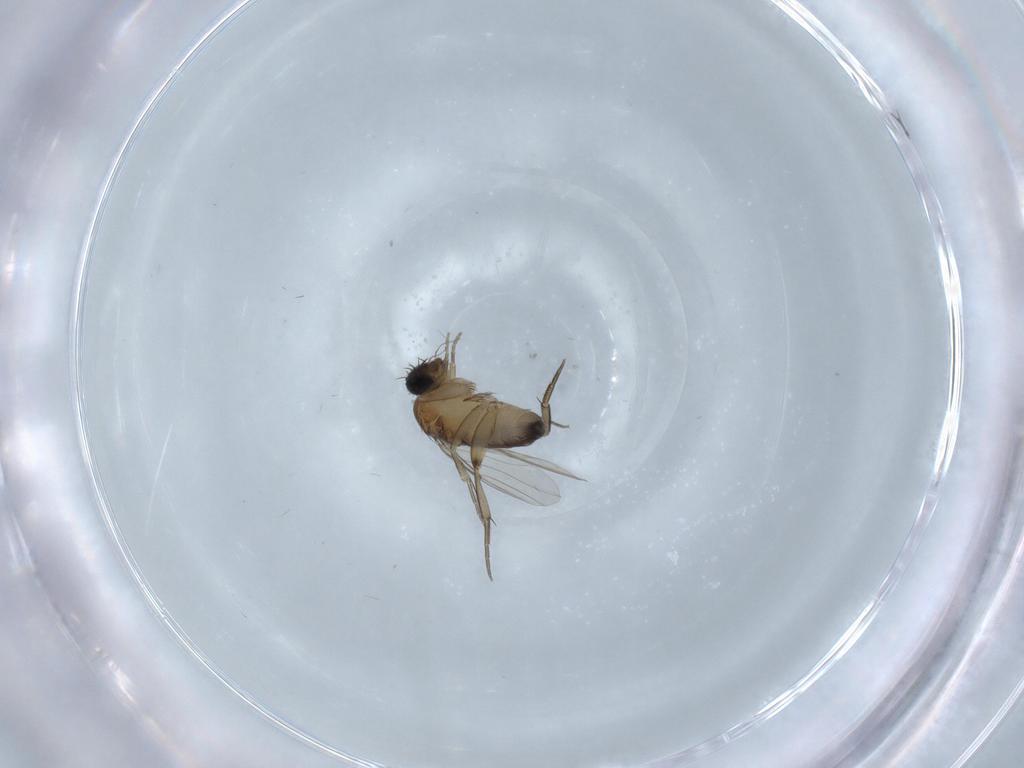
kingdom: Animalia
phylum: Arthropoda
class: Insecta
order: Diptera
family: Phoridae
